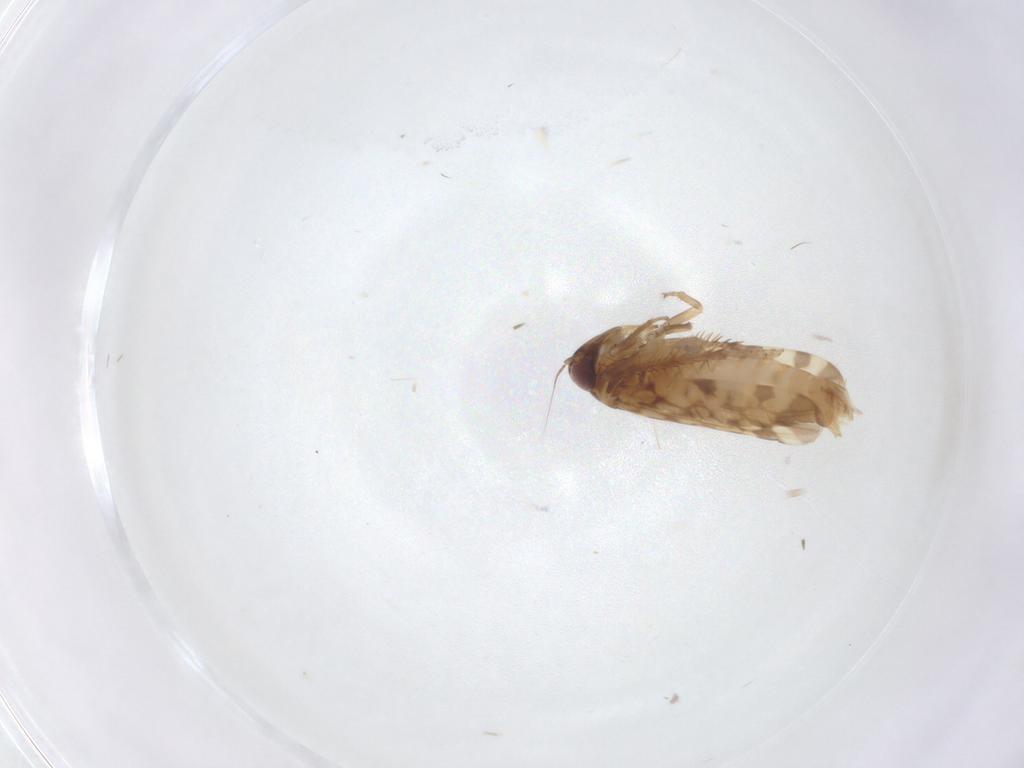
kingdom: Animalia
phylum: Arthropoda
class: Insecta
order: Hemiptera
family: Cicadellidae
